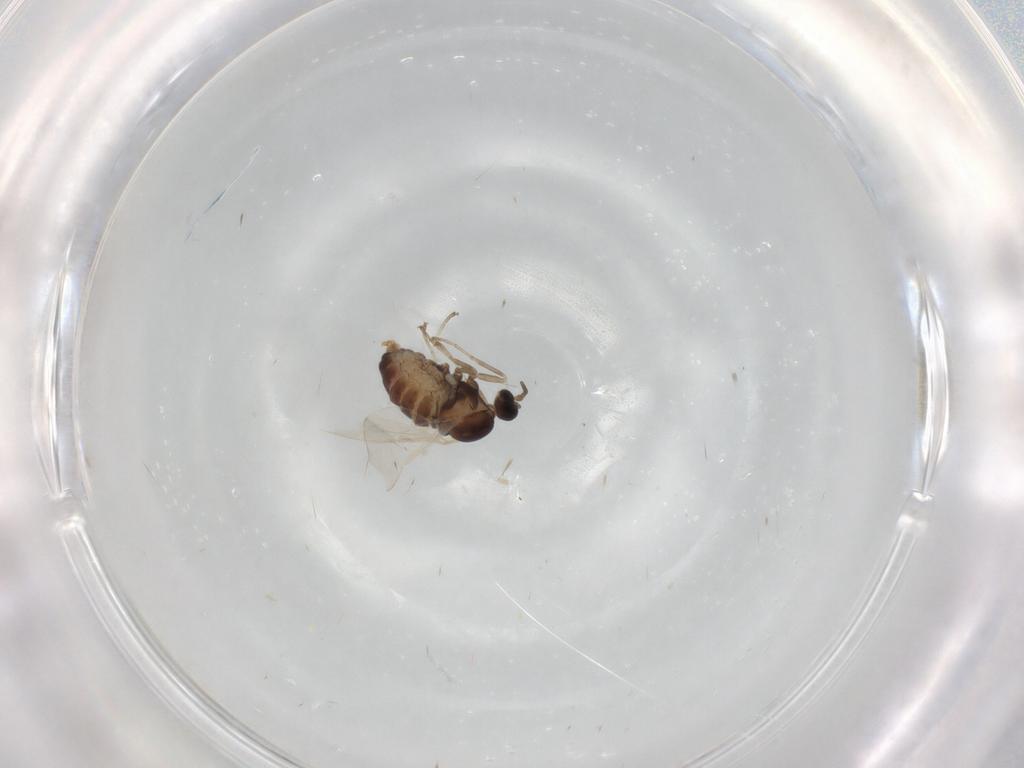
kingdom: Animalia
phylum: Arthropoda
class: Insecta
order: Diptera
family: Cecidomyiidae
